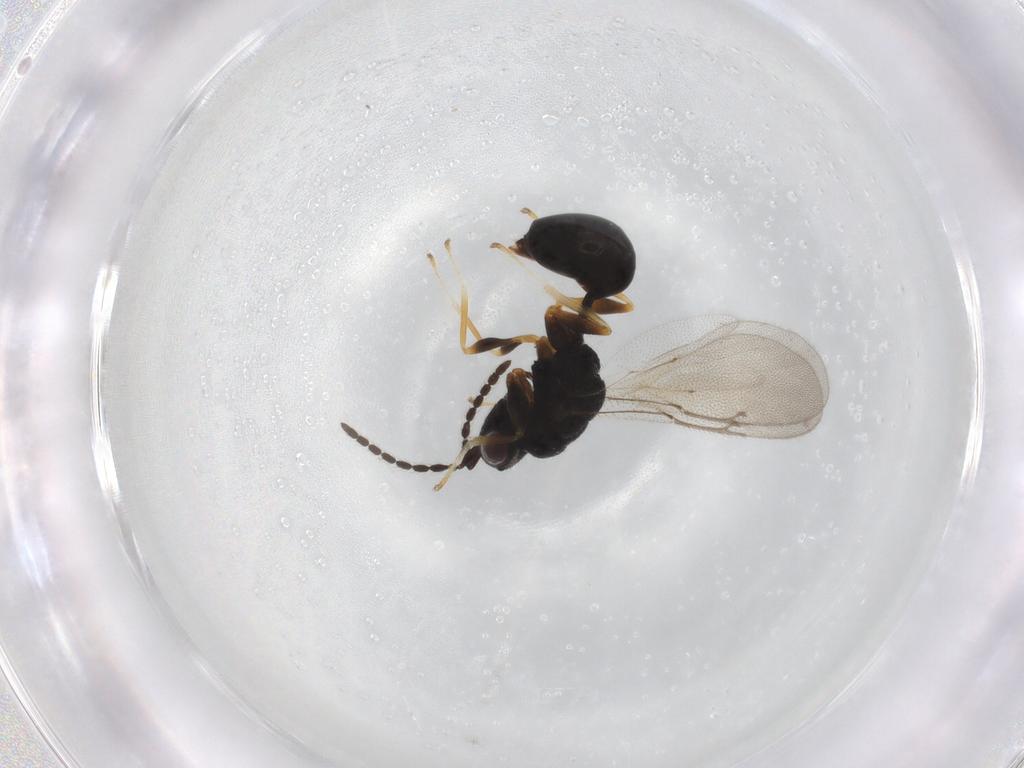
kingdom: Animalia
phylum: Arthropoda
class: Insecta
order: Hymenoptera
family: Eurytomidae
